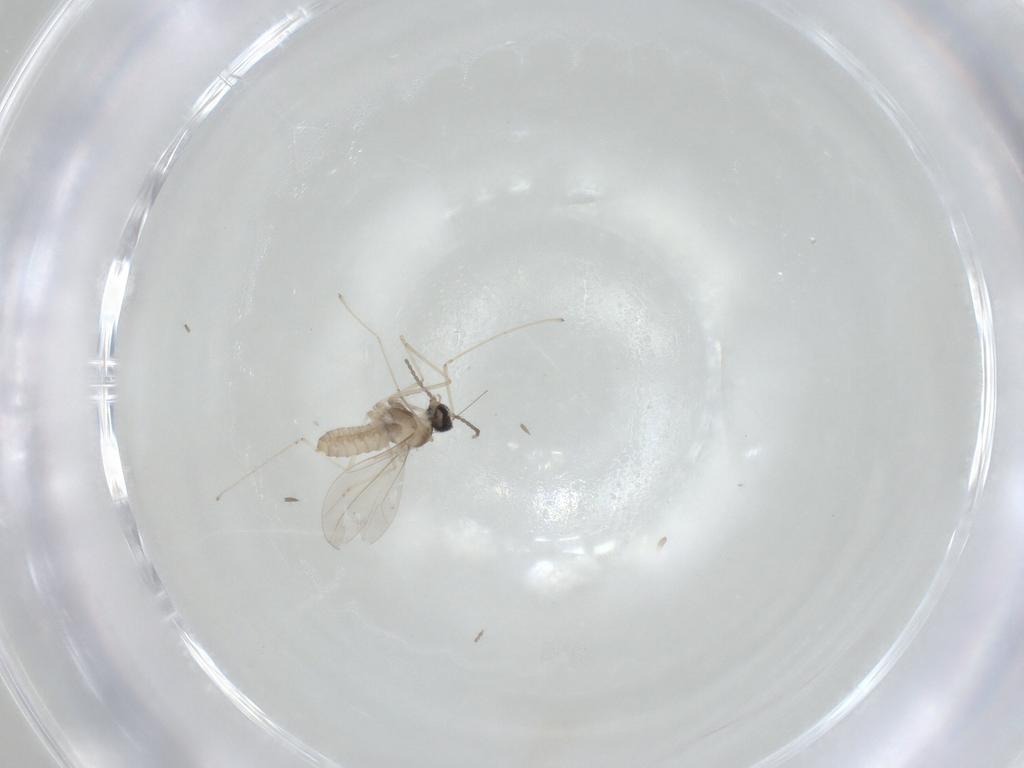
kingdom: Animalia
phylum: Arthropoda
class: Insecta
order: Diptera
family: Cecidomyiidae
